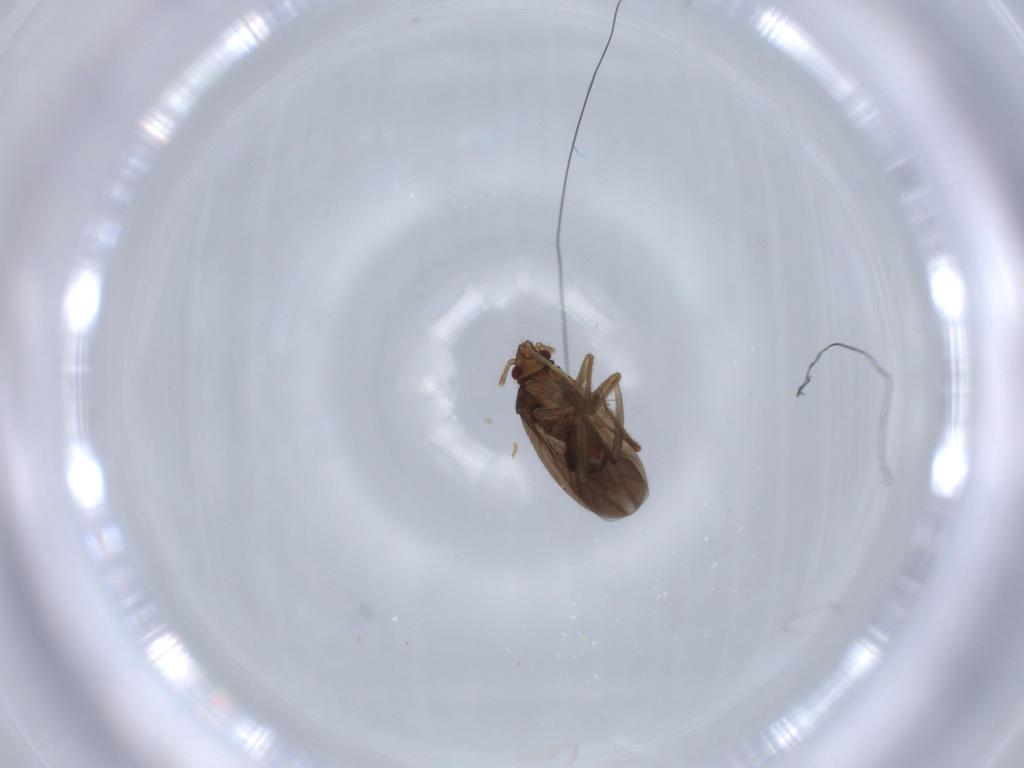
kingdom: Animalia
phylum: Arthropoda
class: Insecta
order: Hemiptera
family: Ceratocombidae
